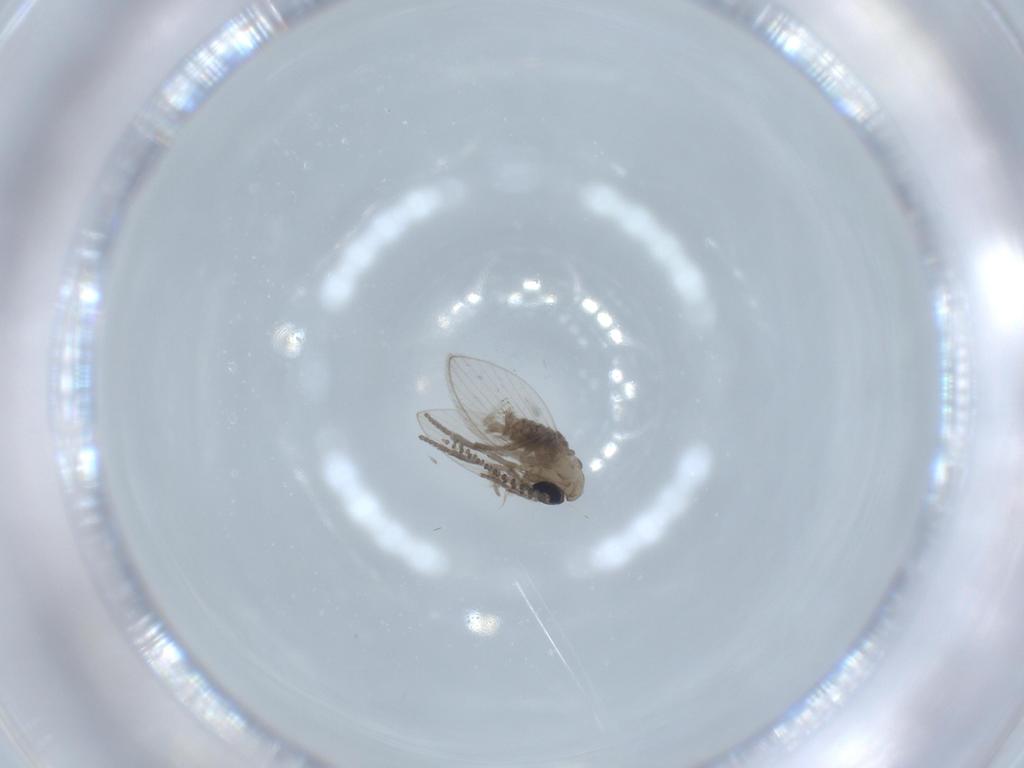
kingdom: Animalia
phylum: Arthropoda
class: Insecta
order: Diptera
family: Psychodidae
